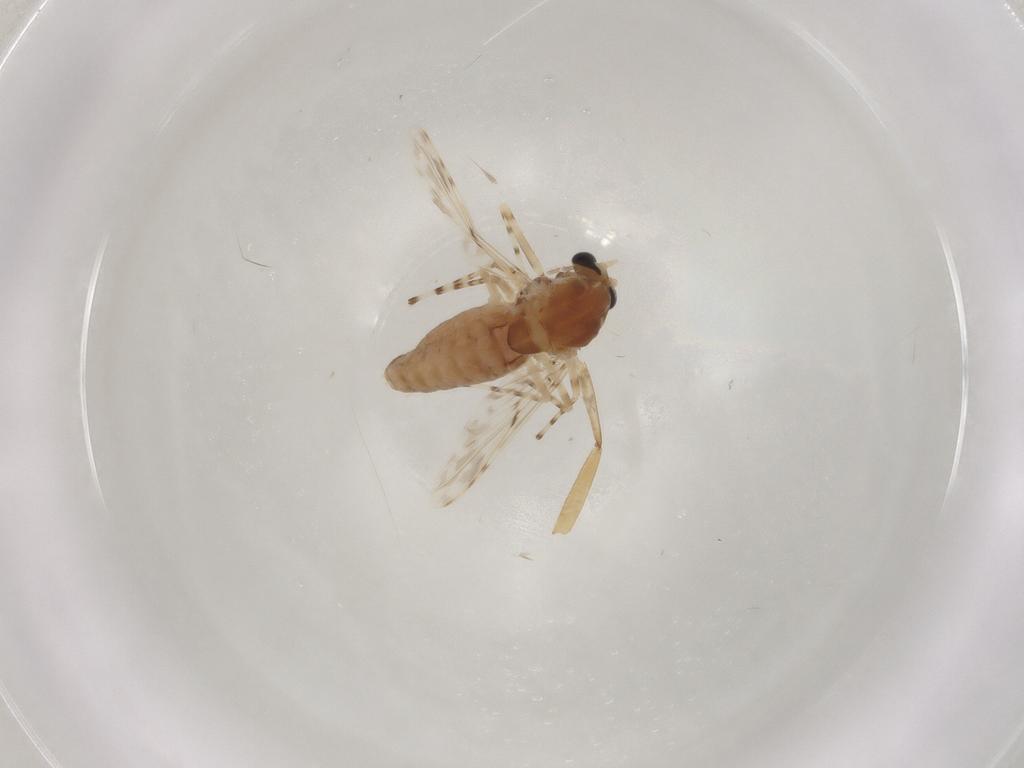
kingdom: Animalia
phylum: Arthropoda
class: Insecta
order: Diptera
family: Chironomidae
